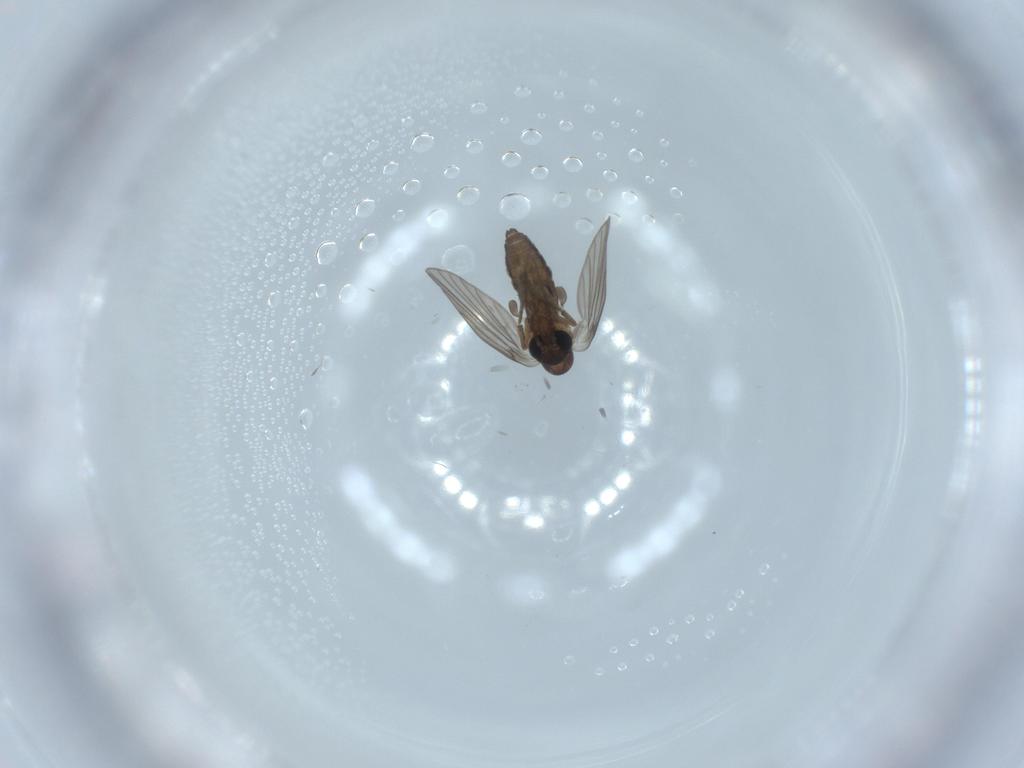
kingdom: Animalia
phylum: Arthropoda
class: Insecta
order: Diptera
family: Psychodidae
